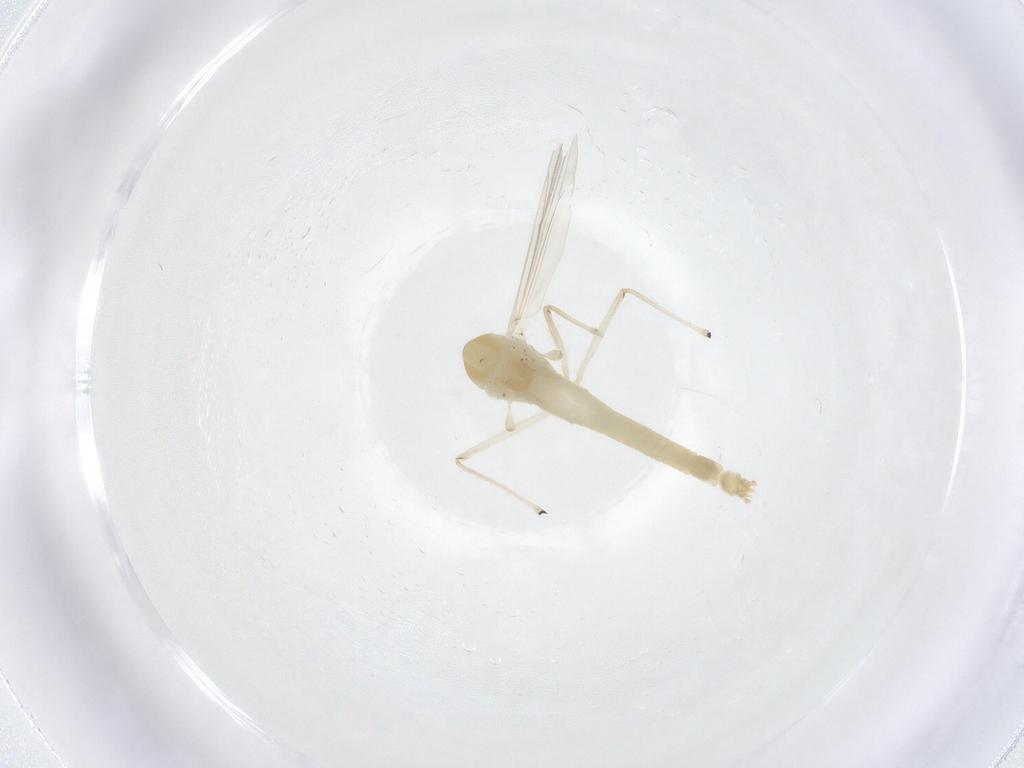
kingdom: Animalia
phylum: Arthropoda
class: Insecta
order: Diptera
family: Chironomidae
